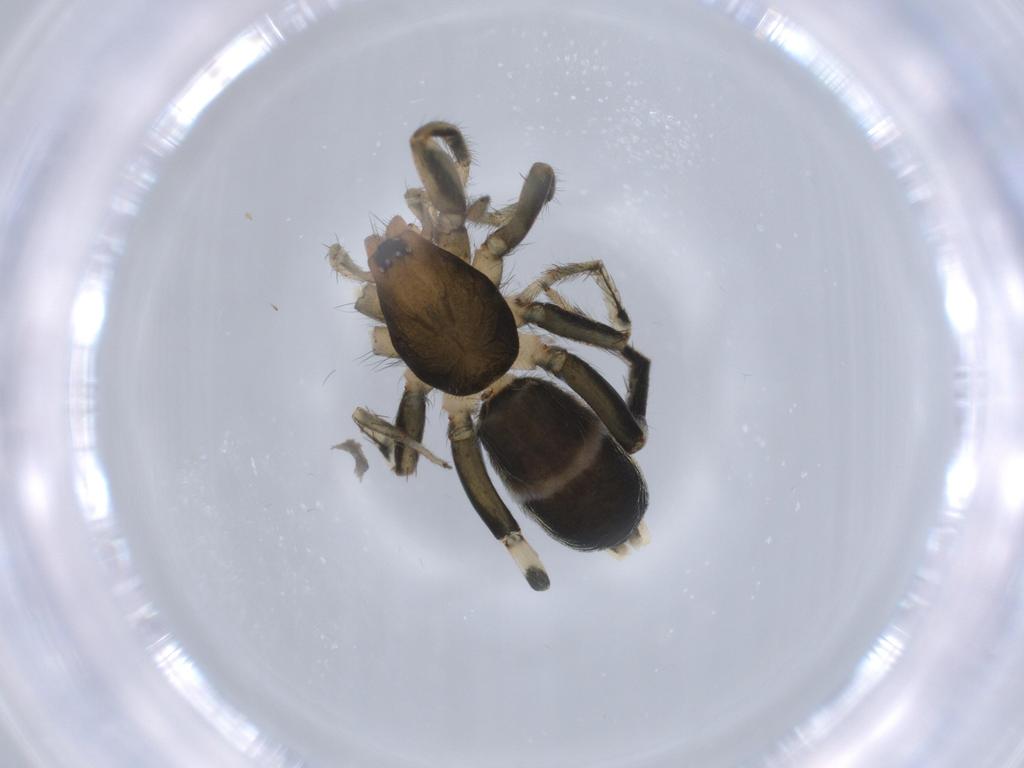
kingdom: Animalia
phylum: Arthropoda
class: Arachnida
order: Araneae
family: Gnaphosidae
